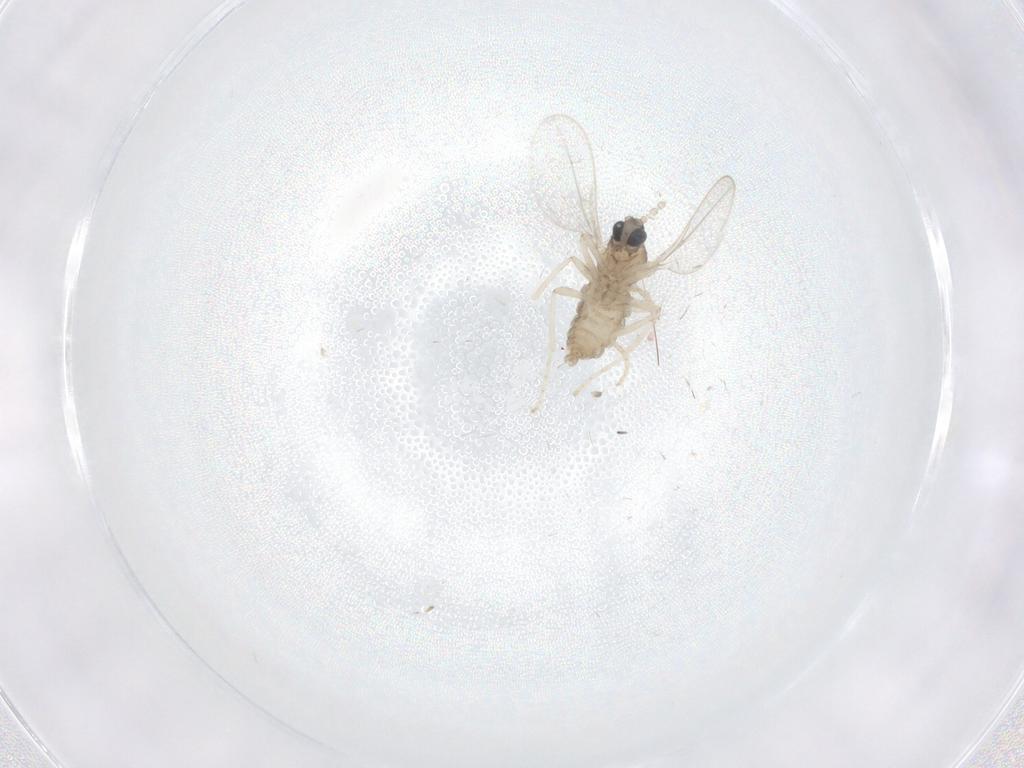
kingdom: Animalia
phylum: Arthropoda
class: Insecta
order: Diptera
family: Cecidomyiidae
